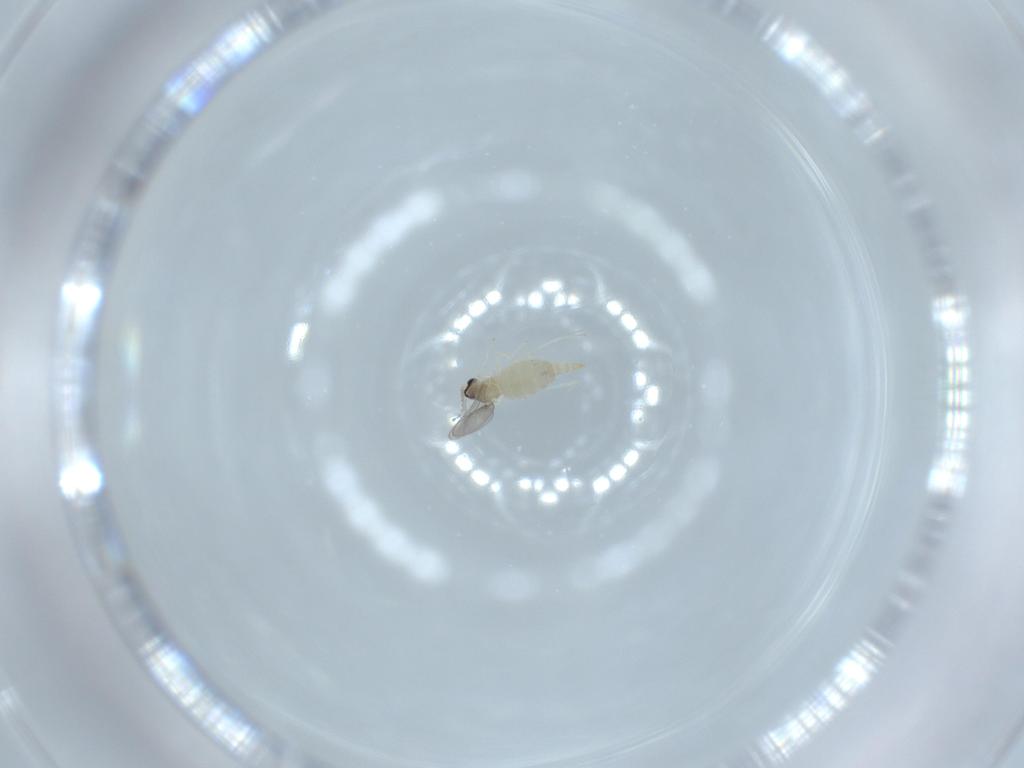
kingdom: Animalia
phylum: Arthropoda
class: Insecta
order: Diptera
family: Cecidomyiidae
